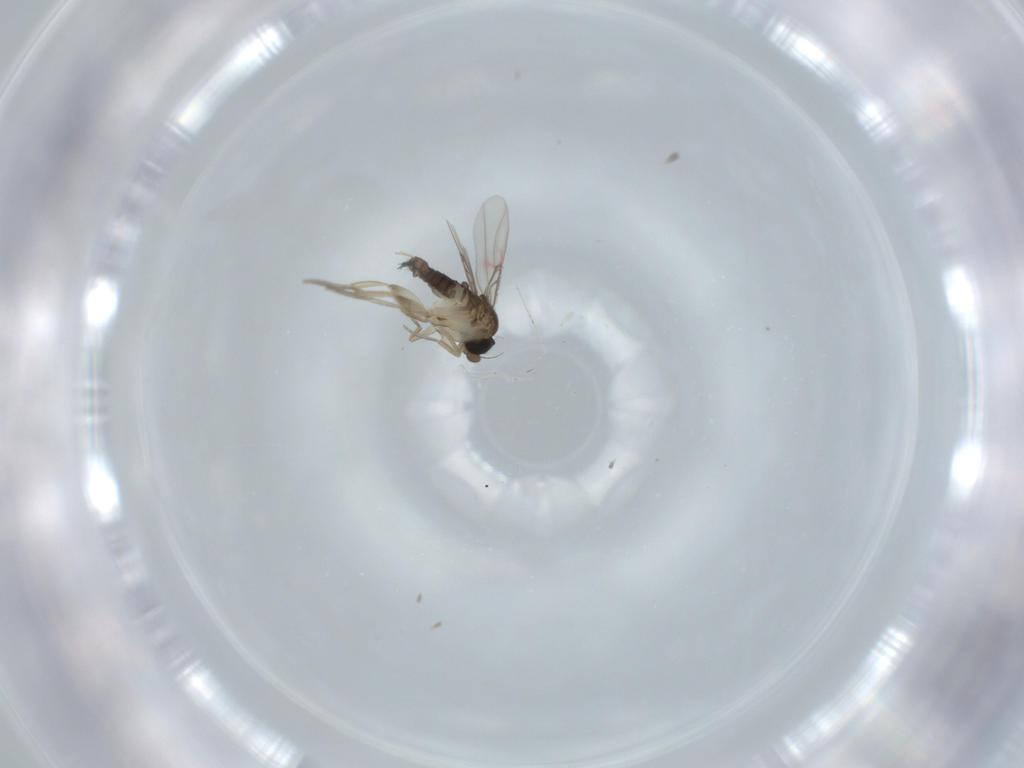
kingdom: Animalia
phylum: Arthropoda
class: Insecta
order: Diptera
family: Phoridae
